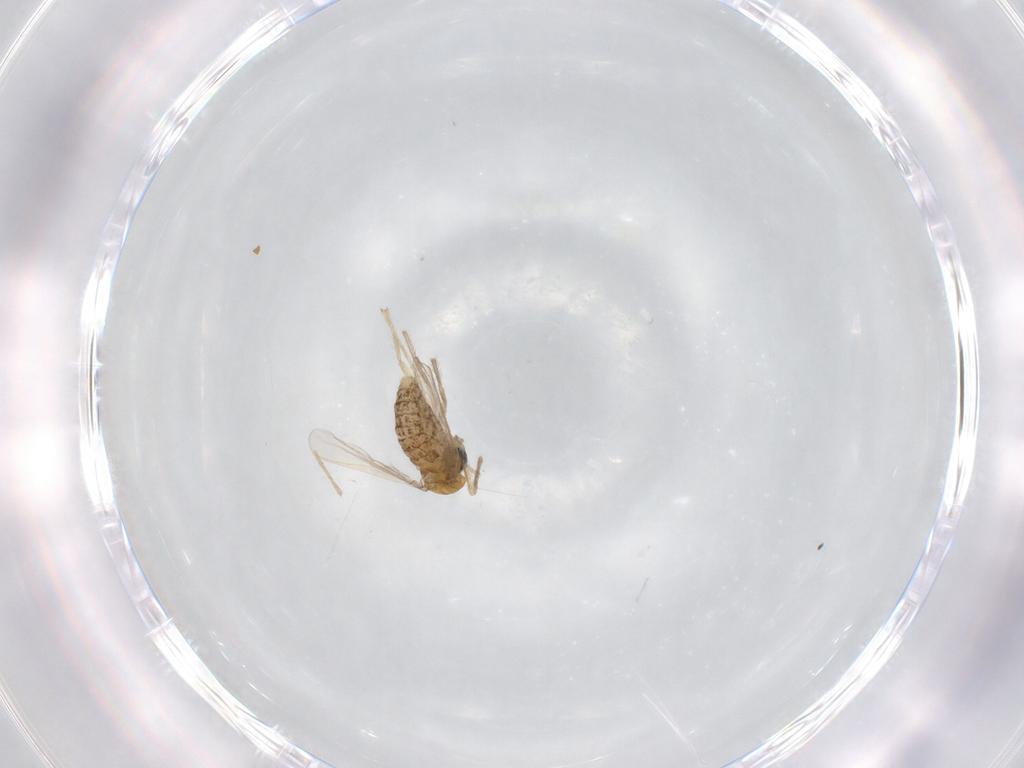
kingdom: Animalia
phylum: Arthropoda
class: Insecta
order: Diptera
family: Chironomidae
